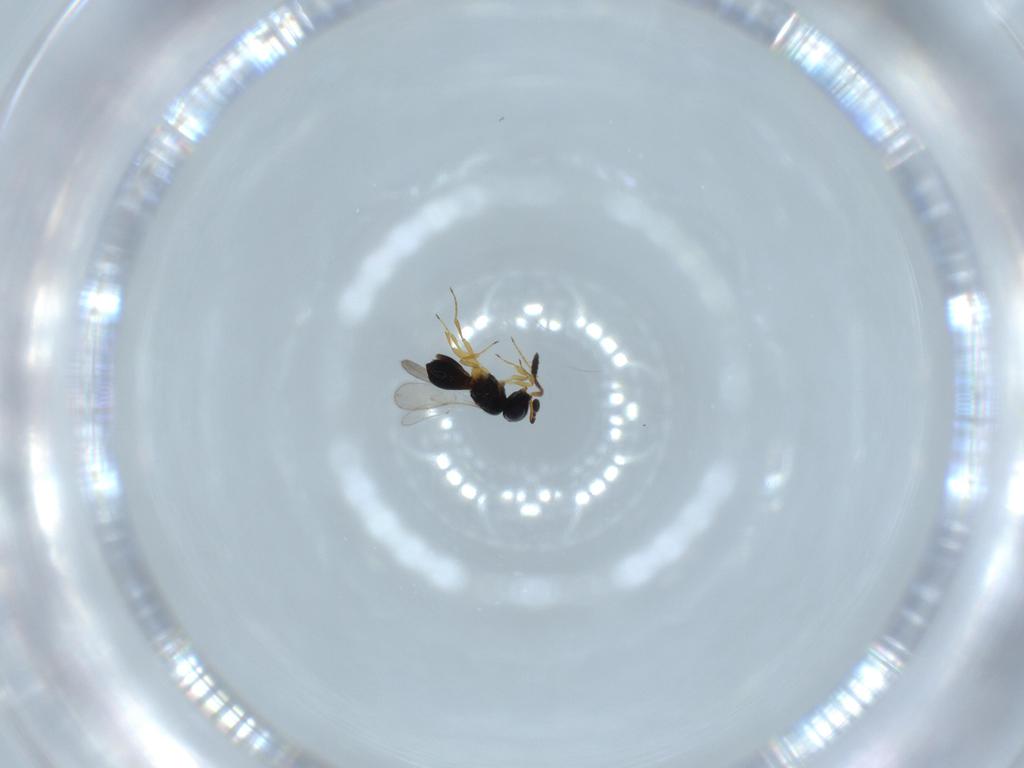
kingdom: Animalia
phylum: Arthropoda
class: Insecta
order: Hymenoptera
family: Scelionidae
